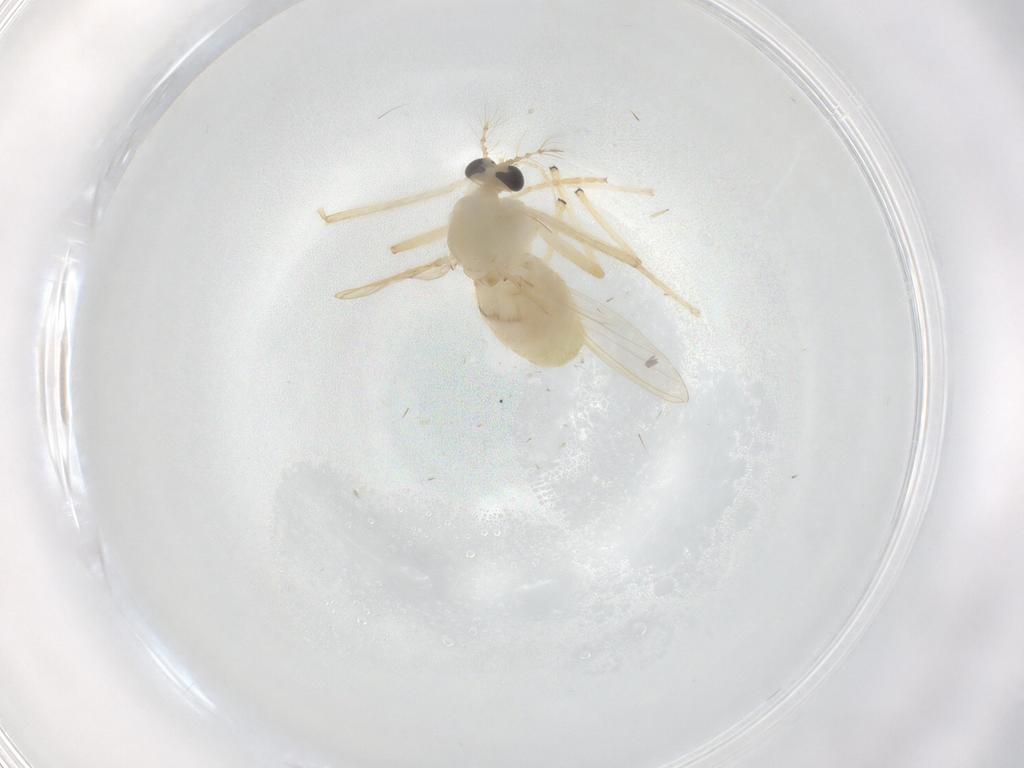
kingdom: Animalia
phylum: Arthropoda
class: Insecta
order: Diptera
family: Chironomidae
